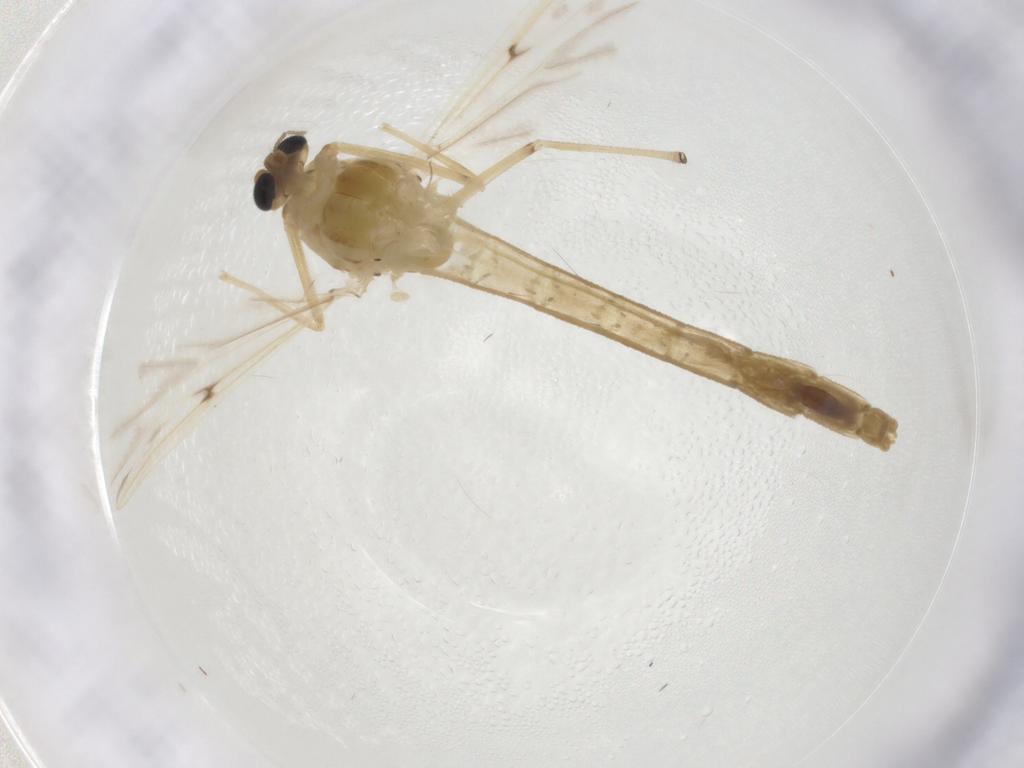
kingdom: Animalia
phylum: Arthropoda
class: Insecta
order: Diptera
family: Chironomidae
